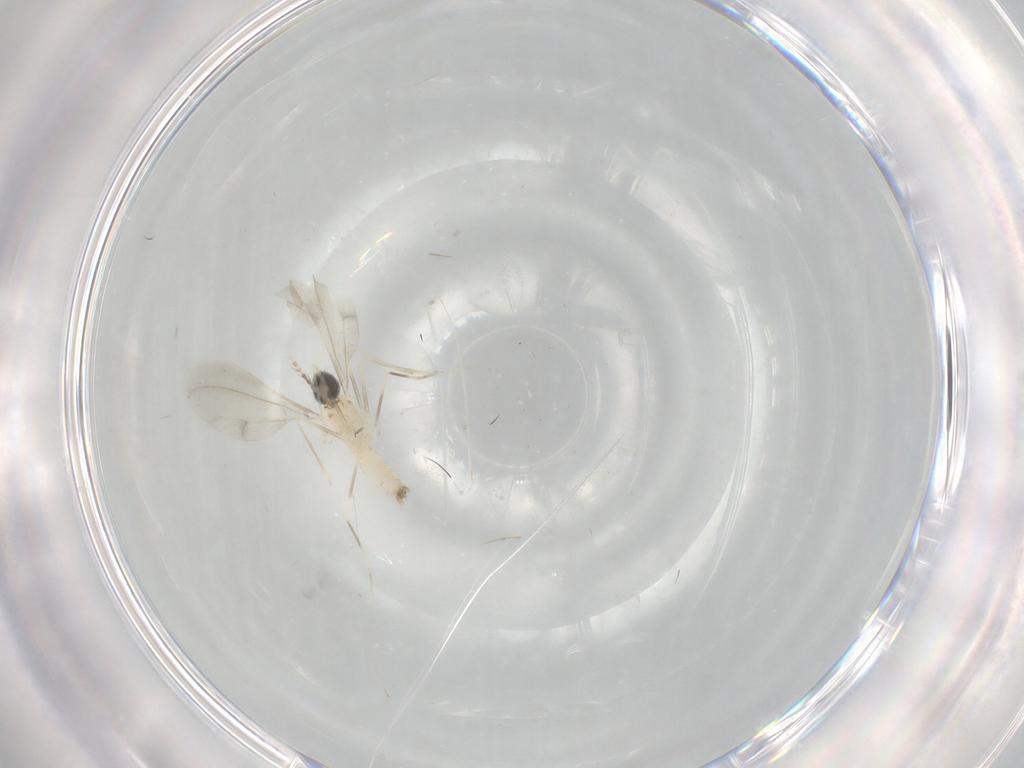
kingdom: Animalia
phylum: Arthropoda
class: Insecta
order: Diptera
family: Cecidomyiidae
